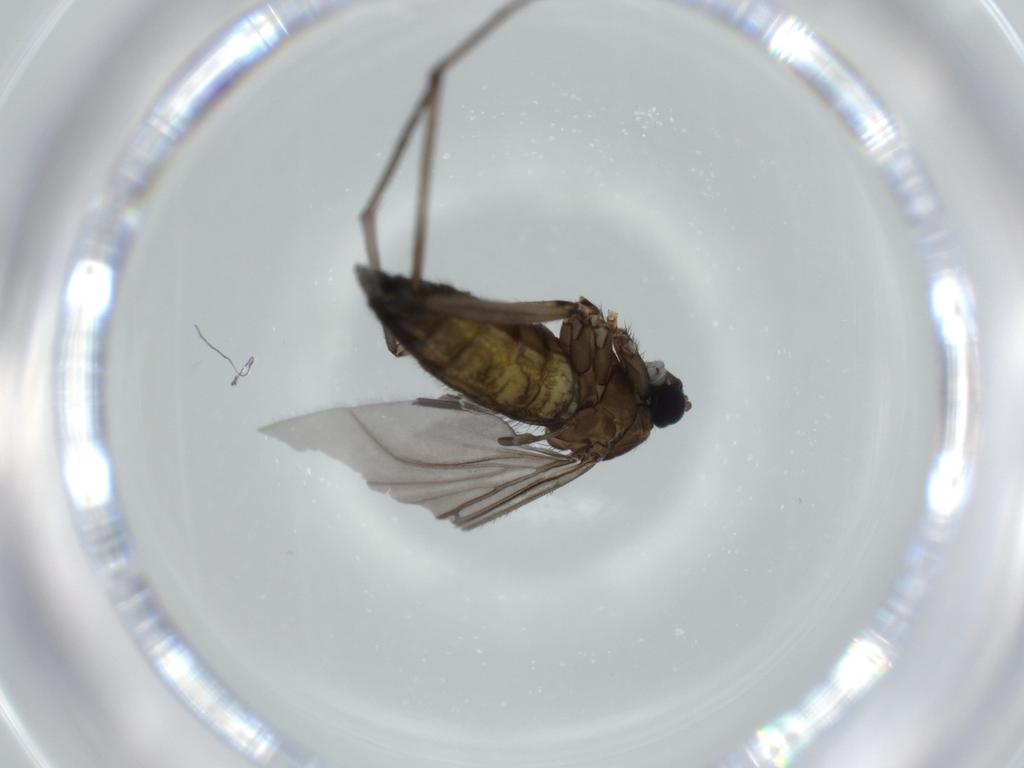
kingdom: Animalia
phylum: Arthropoda
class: Insecta
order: Diptera
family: Sciaridae
